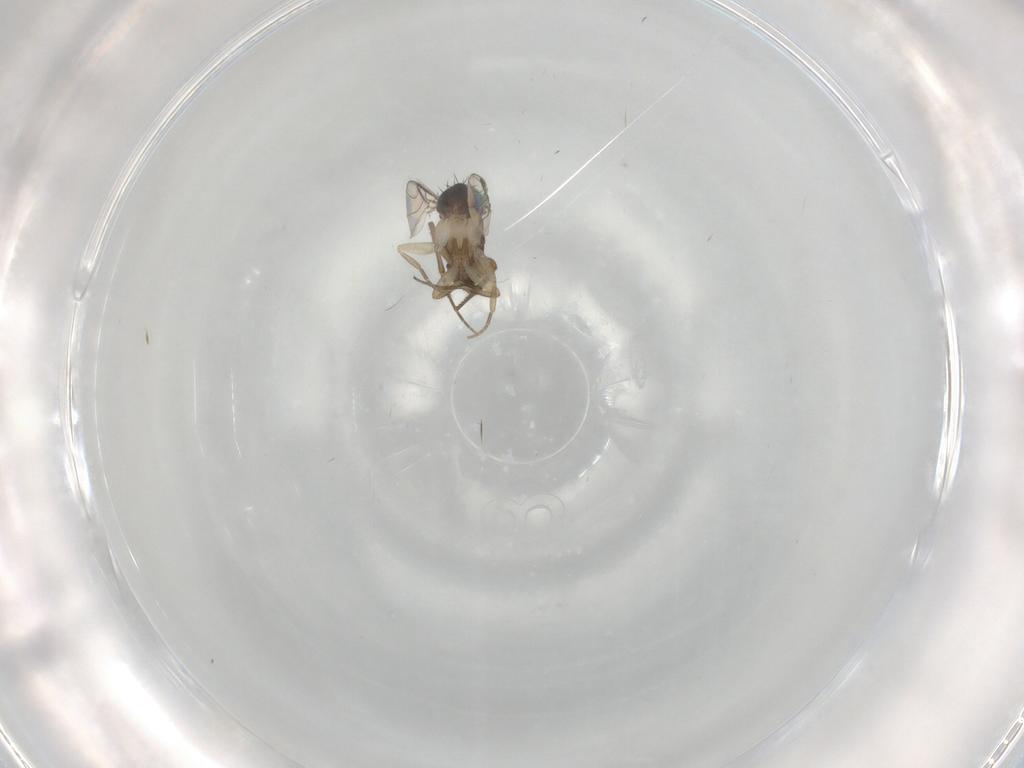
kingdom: Animalia
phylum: Arthropoda
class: Insecta
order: Diptera
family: Phoridae
